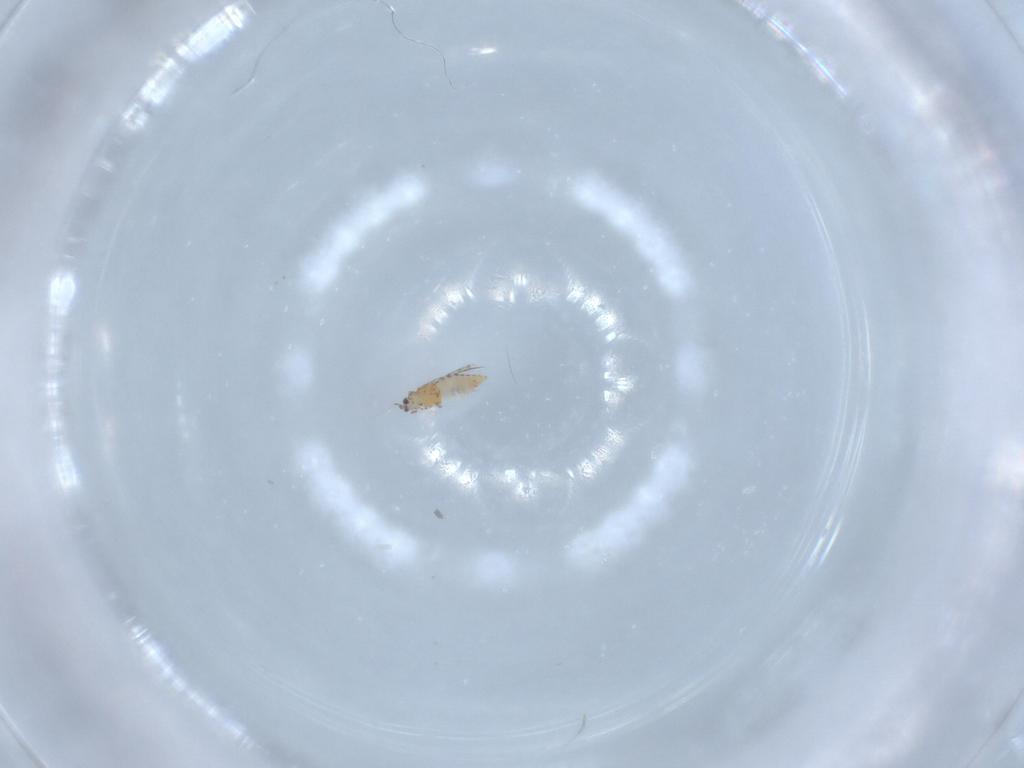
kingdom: Animalia
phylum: Arthropoda
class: Insecta
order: Thysanoptera
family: Thripidae
